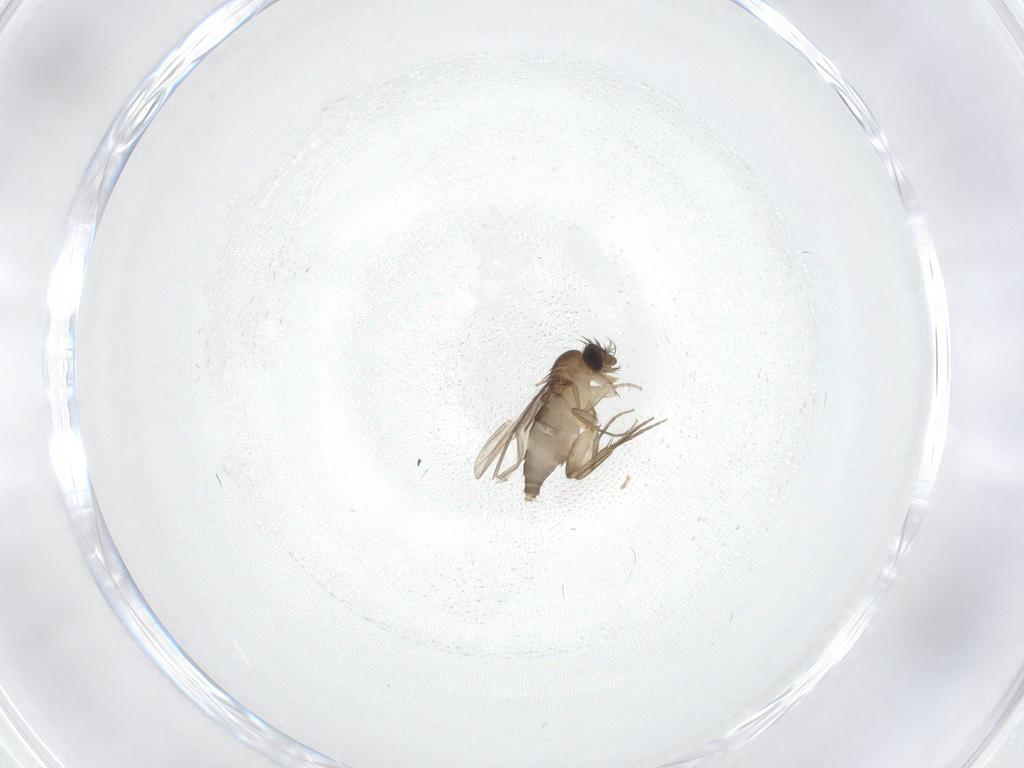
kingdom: Animalia
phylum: Arthropoda
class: Insecta
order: Diptera
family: Phoridae
